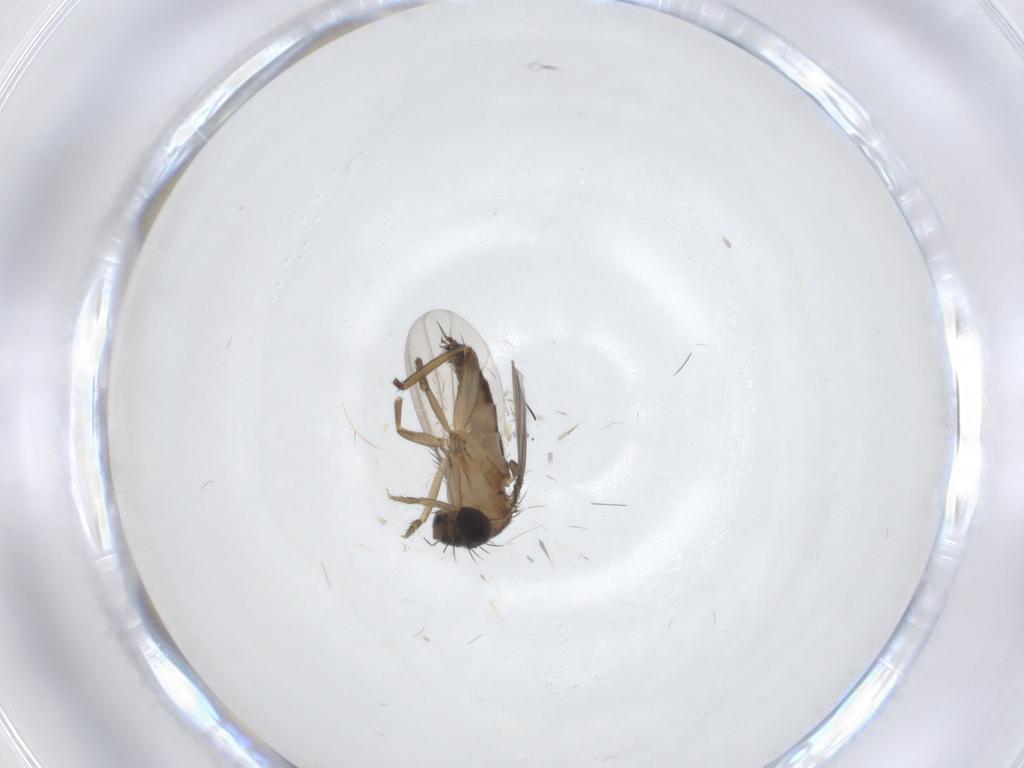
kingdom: Animalia
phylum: Arthropoda
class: Insecta
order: Diptera
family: Phoridae
